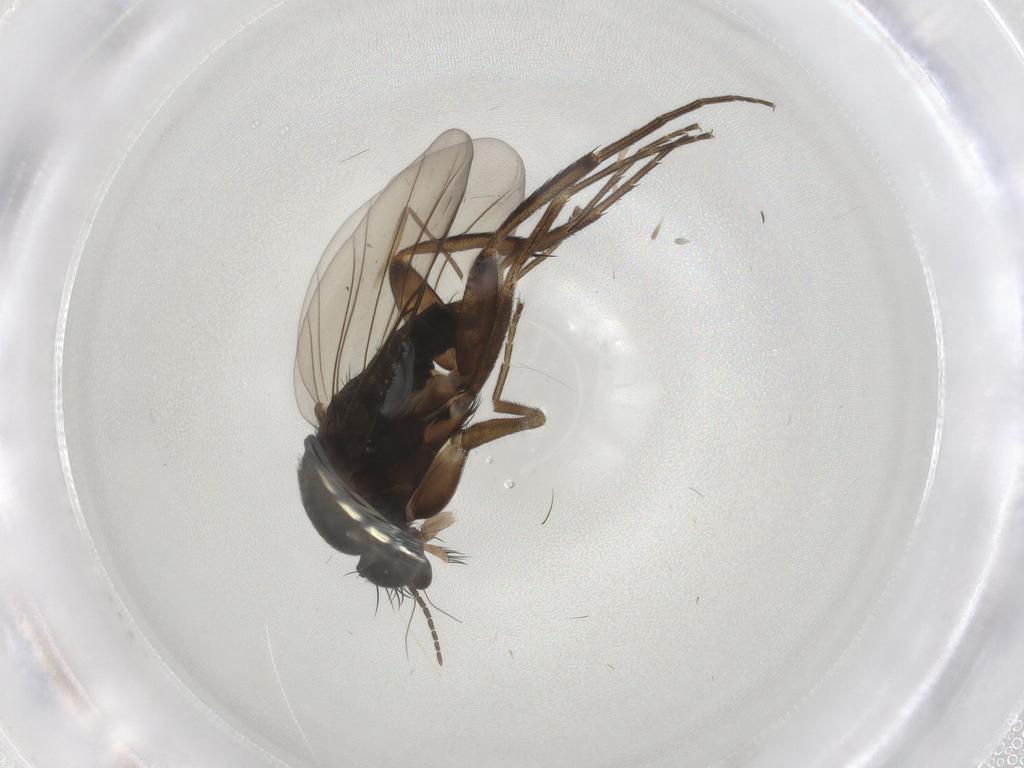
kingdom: Animalia
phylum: Arthropoda
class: Insecta
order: Diptera
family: Phoridae
